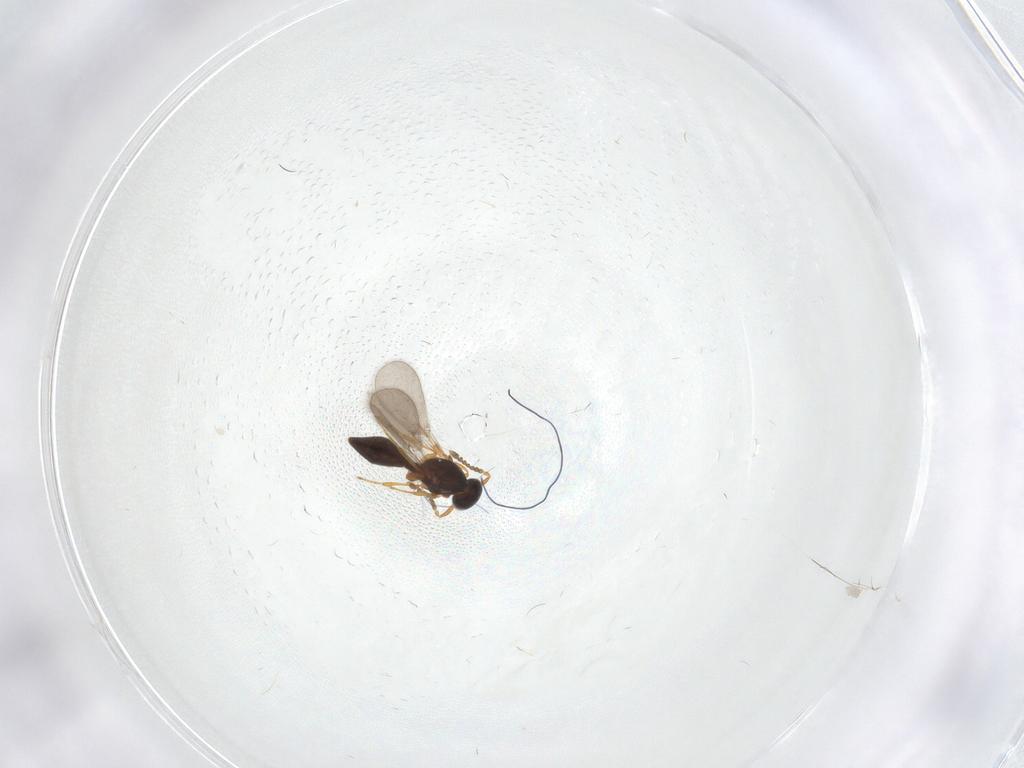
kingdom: Animalia
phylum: Arthropoda
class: Insecta
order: Hymenoptera
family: Platygastridae
